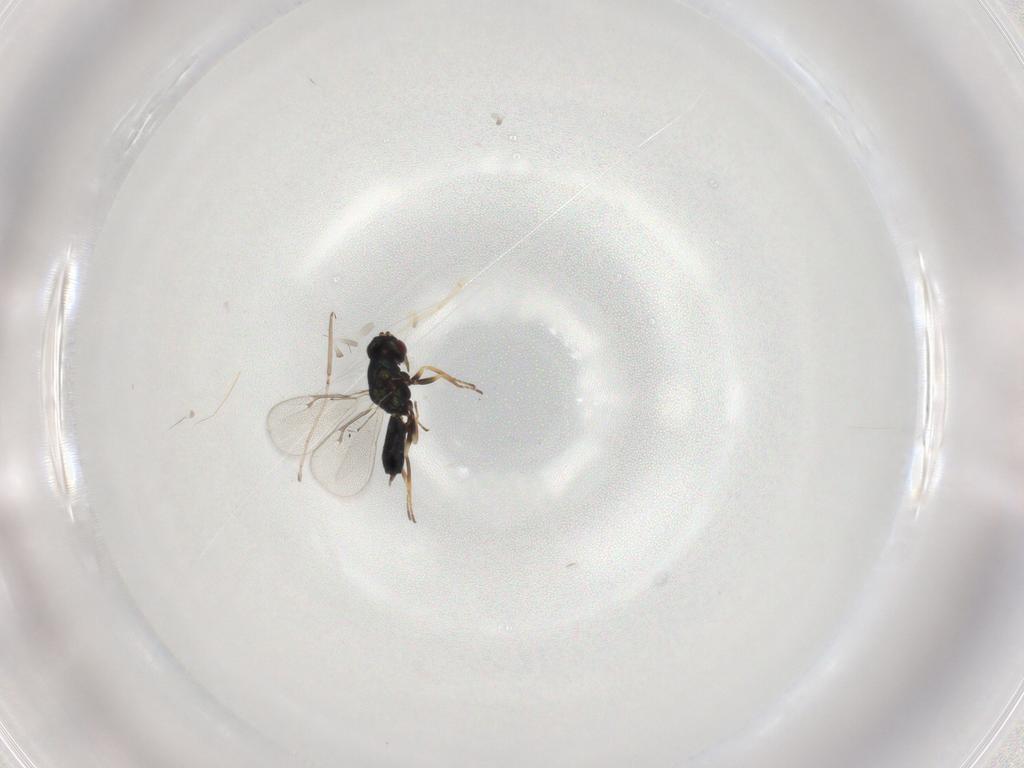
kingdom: Animalia
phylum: Arthropoda
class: Insecta
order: Hymenoptera
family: Eulophidae
